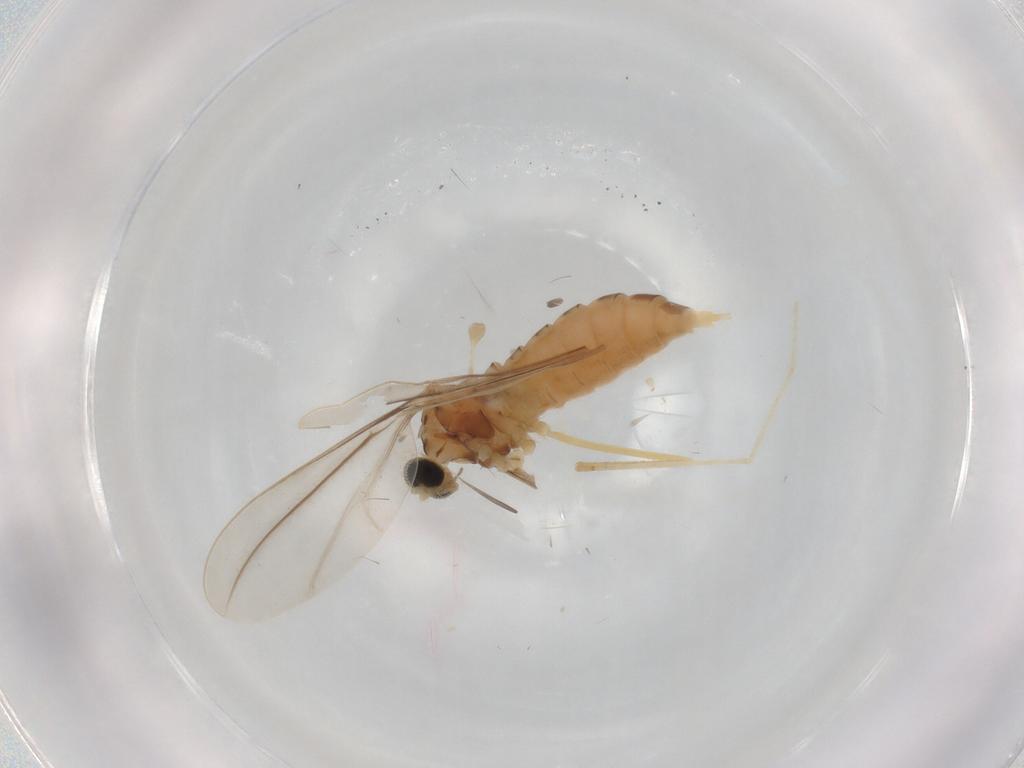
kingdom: Animalia
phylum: Arthropoda
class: Insecta
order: Diptera
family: Cecidomyiidae
